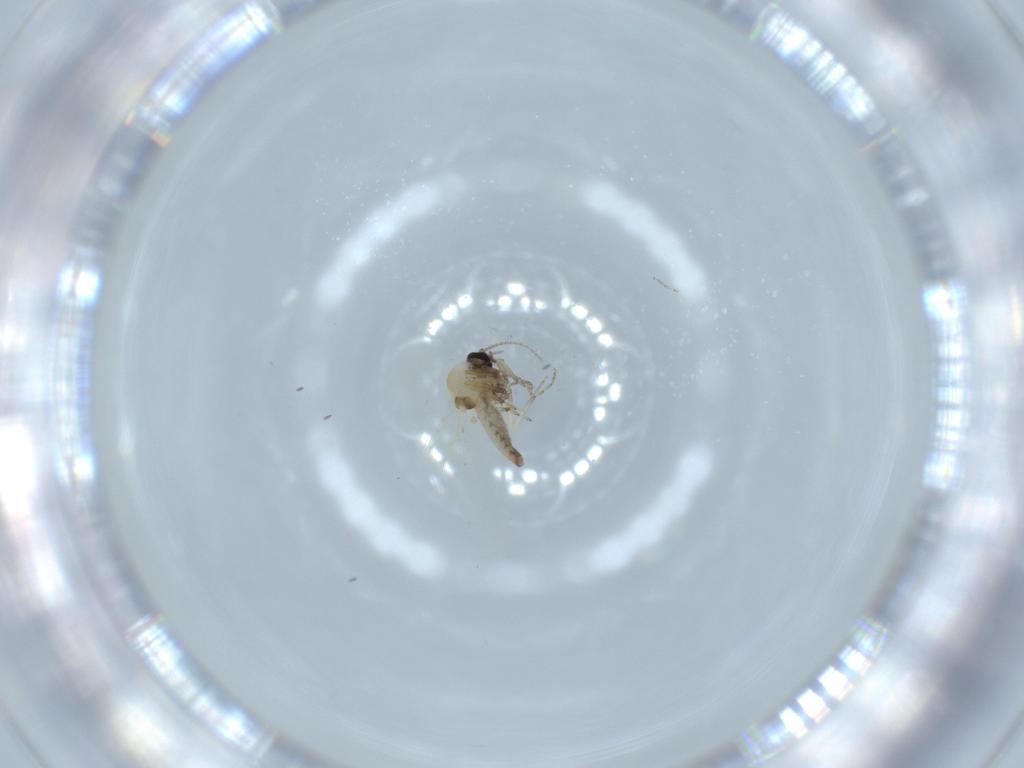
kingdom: Animalia
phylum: Arthropoda
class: Insecta
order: Diptera
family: Ceratopogonidae
